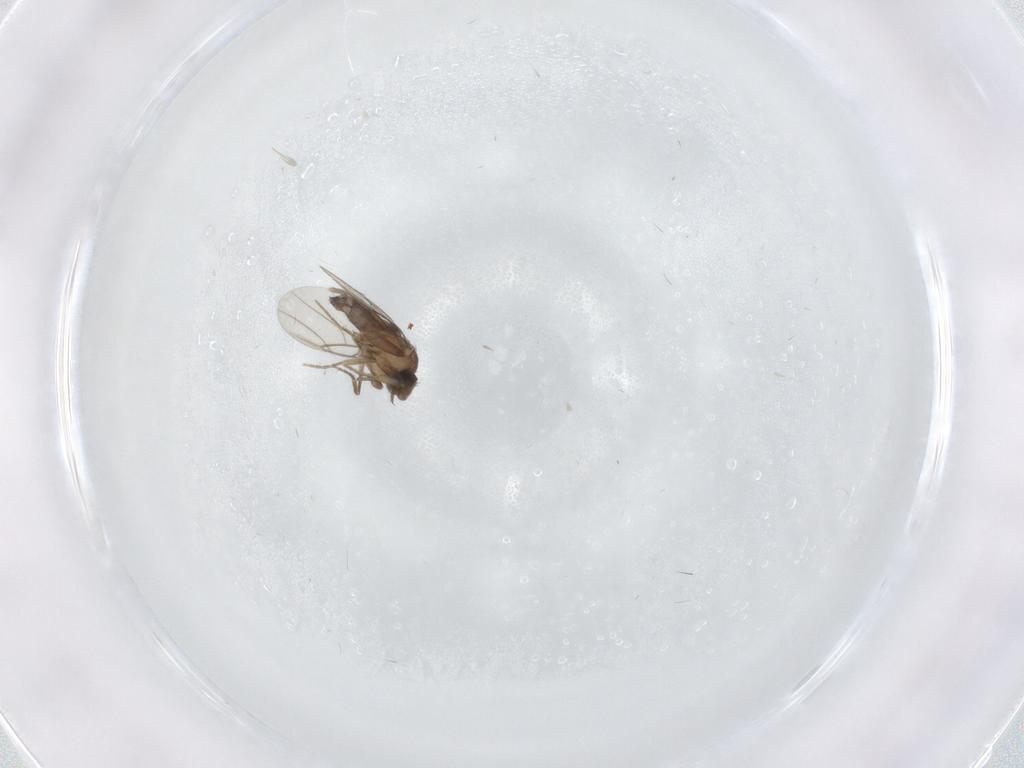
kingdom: Animalia
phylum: Arthropoda
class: Insecta
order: Diptera
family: Phoridae
